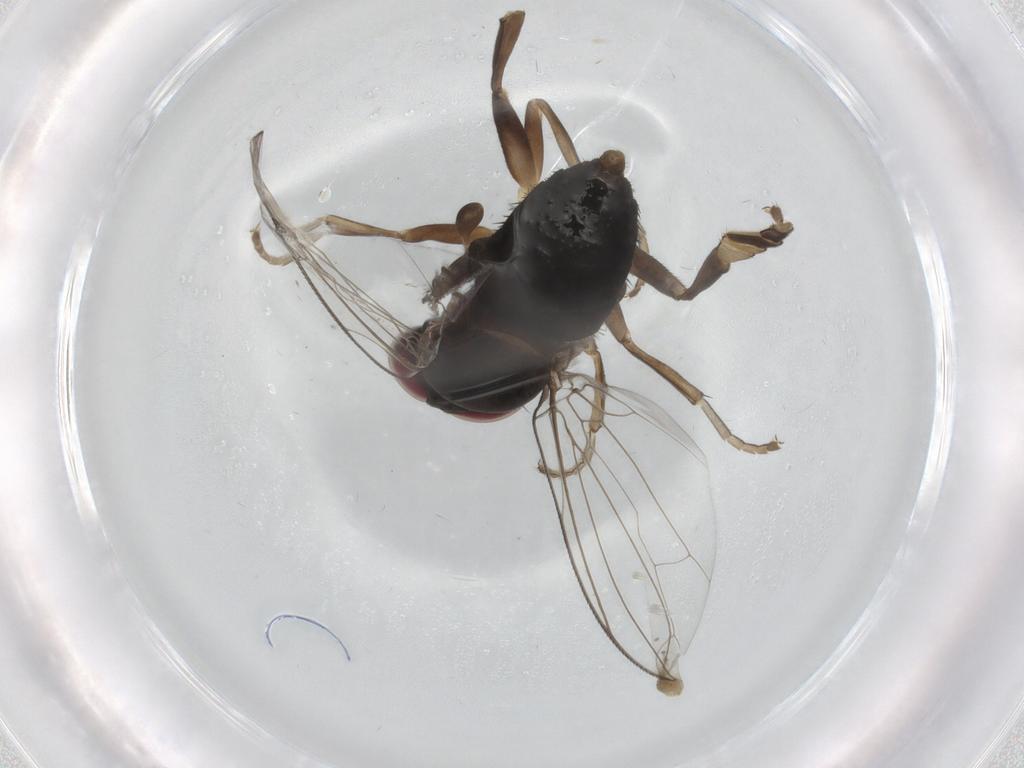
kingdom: Animalia
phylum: Arthropoda
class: Insecta
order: Diptera
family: Platypezidae
